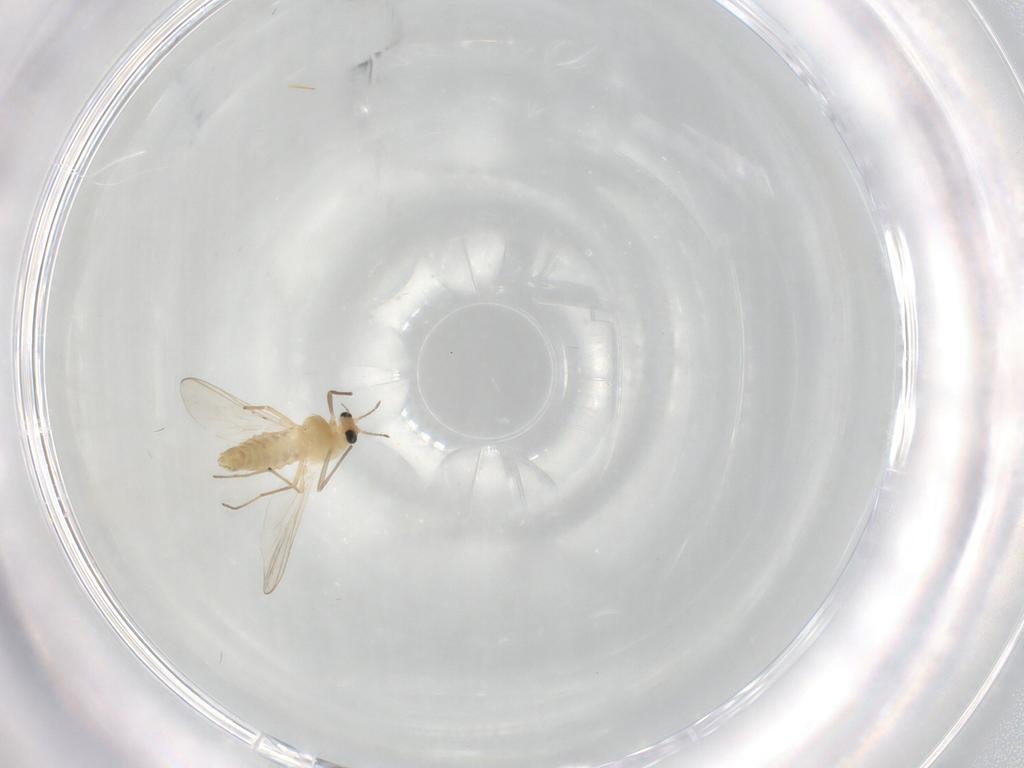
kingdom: Animalia
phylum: Arthropoda
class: Insecta
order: Diptera
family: Chironomidae
